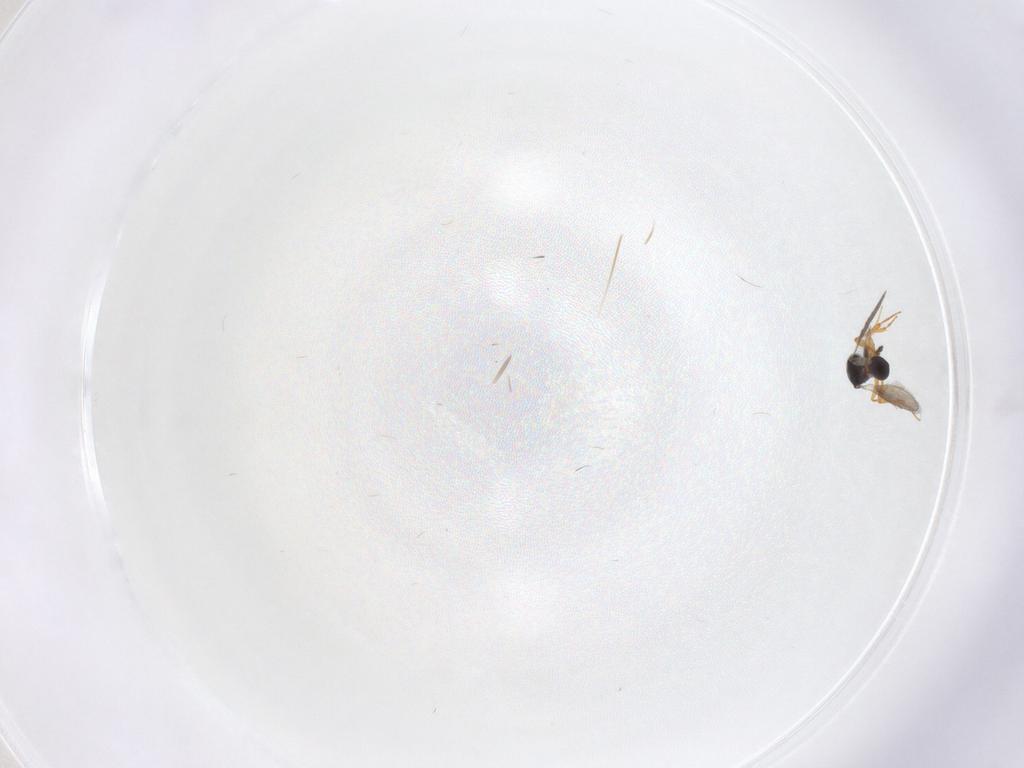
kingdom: Animalia
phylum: Arthropoda
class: Insecta
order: Hymenoptera
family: Platygastridae
